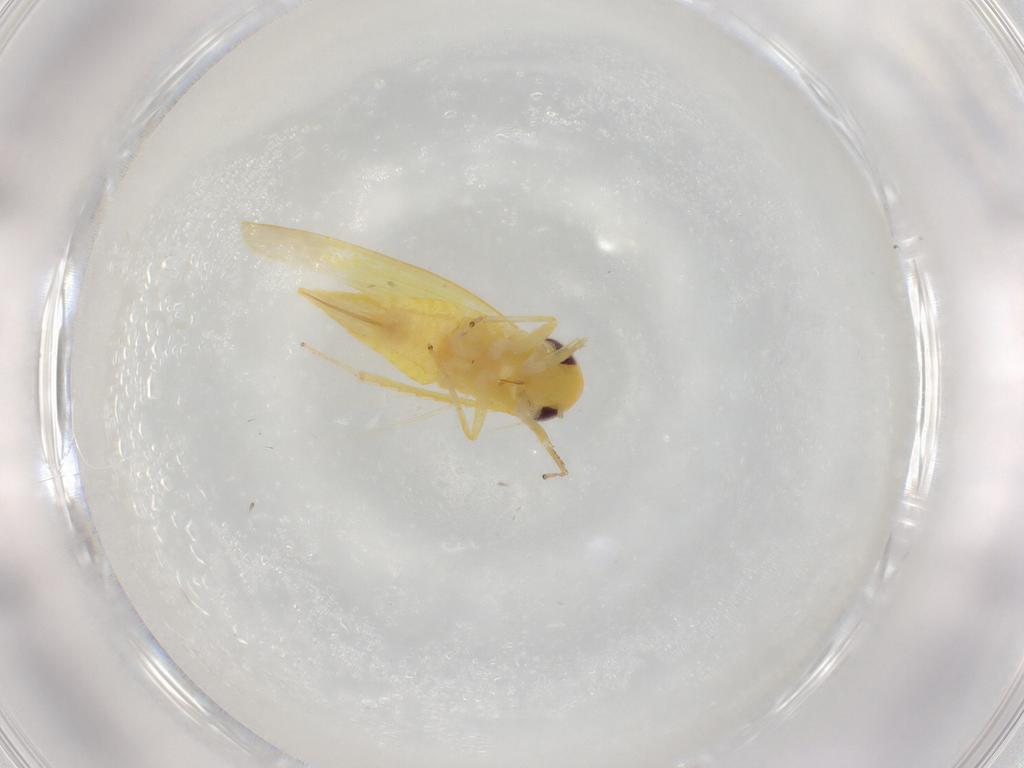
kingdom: Animalia
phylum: Arthropoda
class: Insecta
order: Hemiptera
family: Cicadellidae
